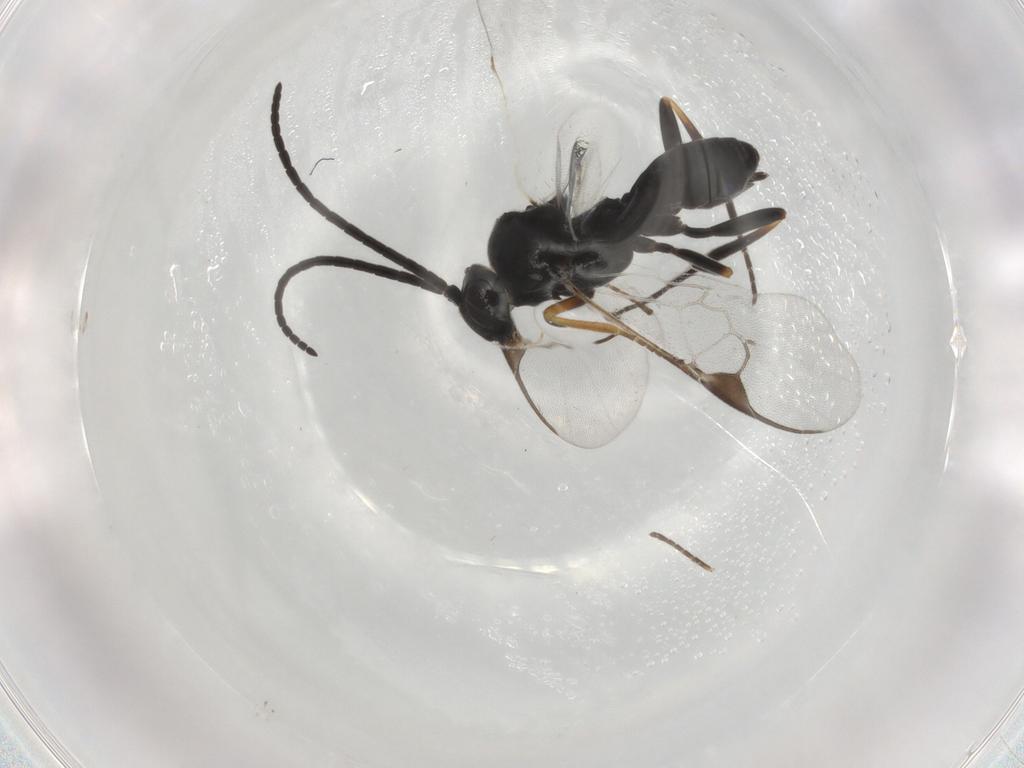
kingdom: Animalia
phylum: Arthropoda
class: Insecta
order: Hymenoptera
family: Braconidae
